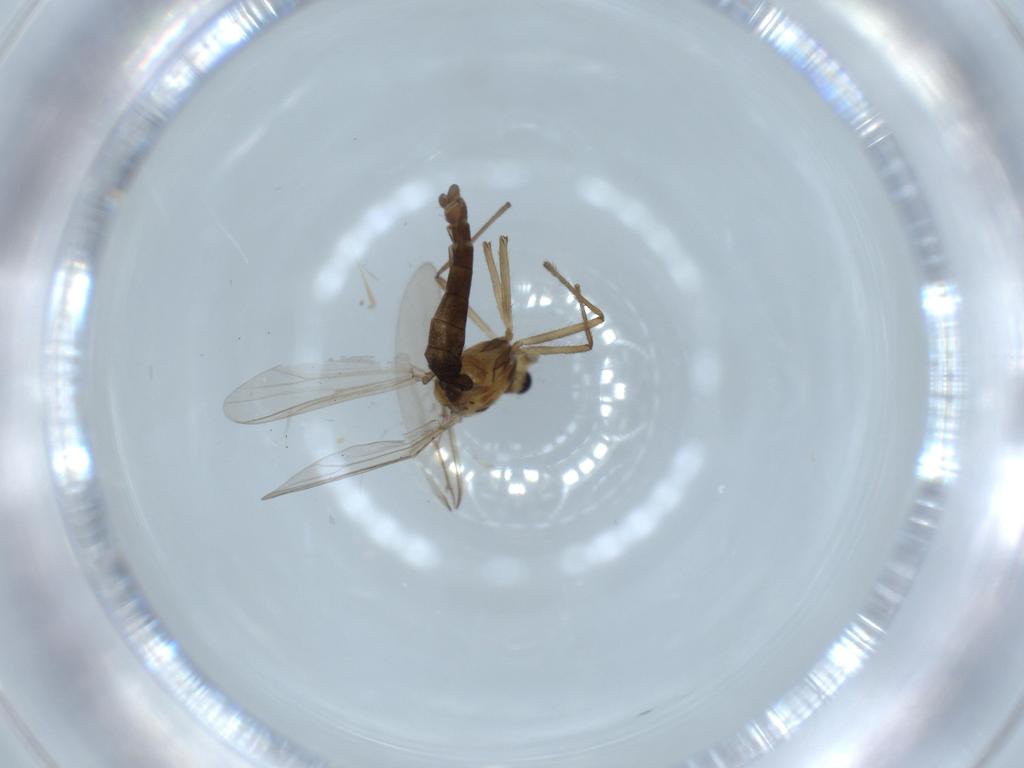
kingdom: Animalia
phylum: Arthropoda
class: Insecta
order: Diptera
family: Chironomidae
